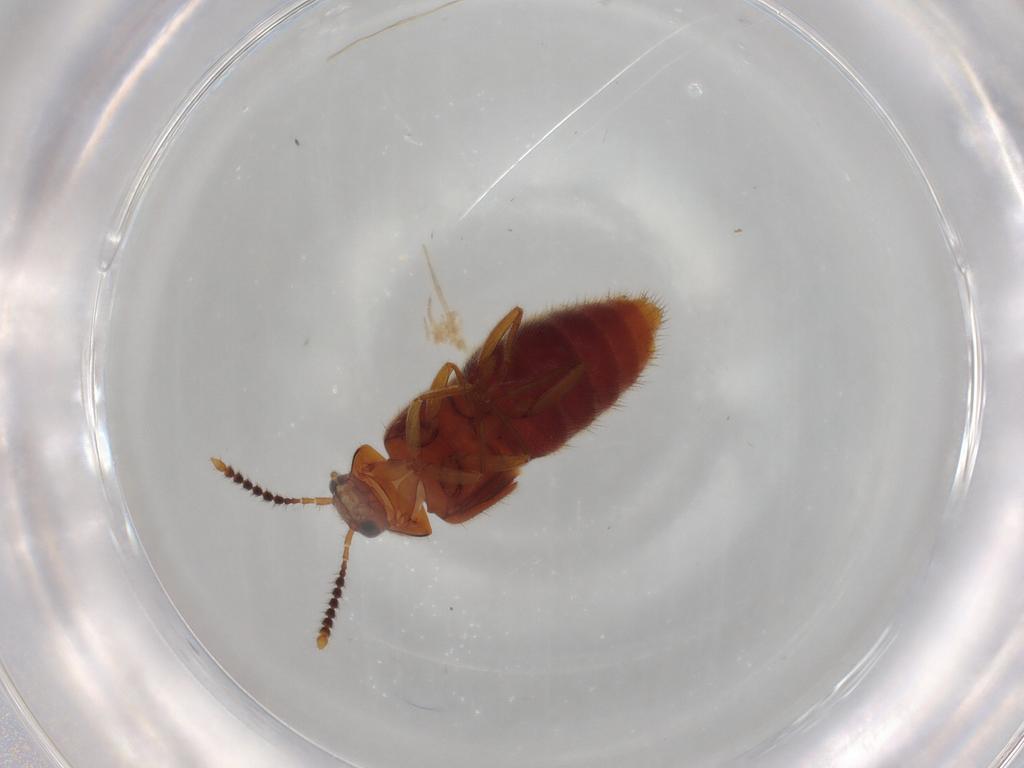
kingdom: Animalia
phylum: Arthropoda
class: Insecta
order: Coleoptera
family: Staphylinidae
